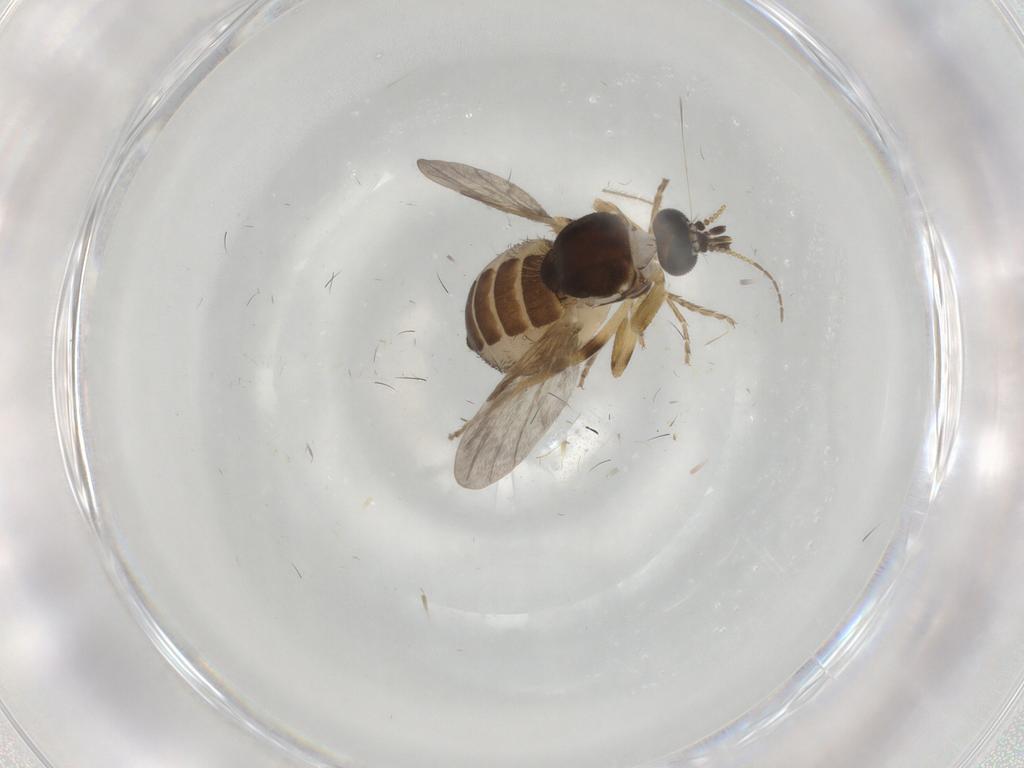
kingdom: Animalia
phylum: Arthropoda
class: Insecta
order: Diptera
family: Ceratopogonidae
